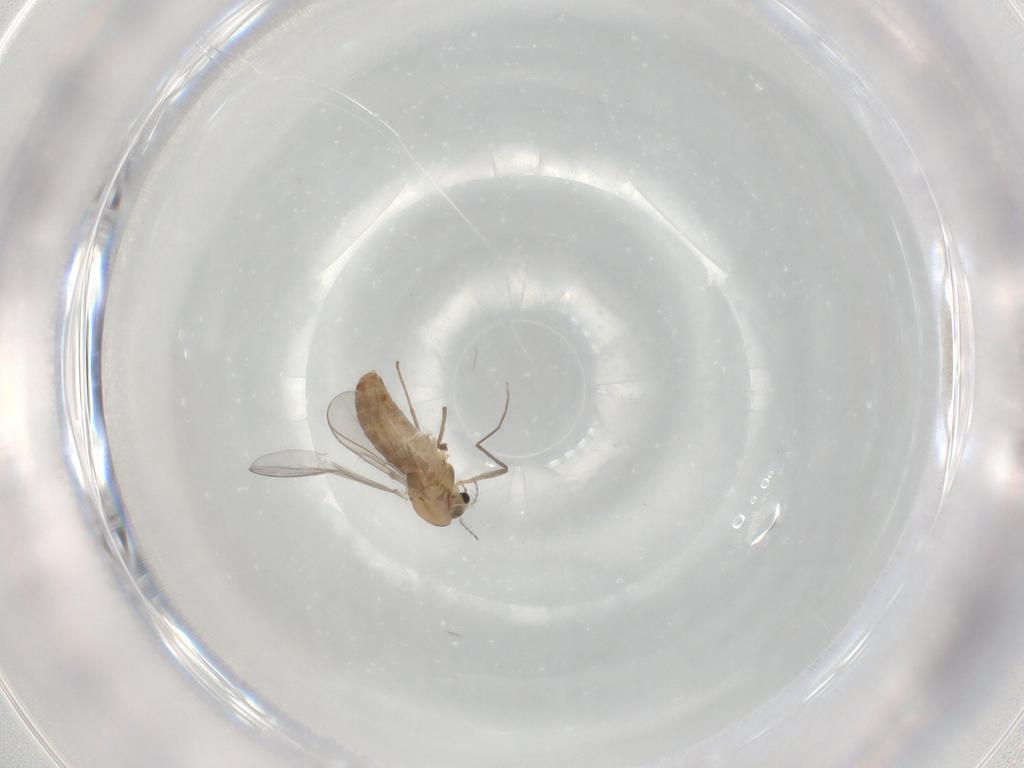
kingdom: Animalia
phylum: Arthropoda
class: Insecta
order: Diptera
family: Chironomidae
